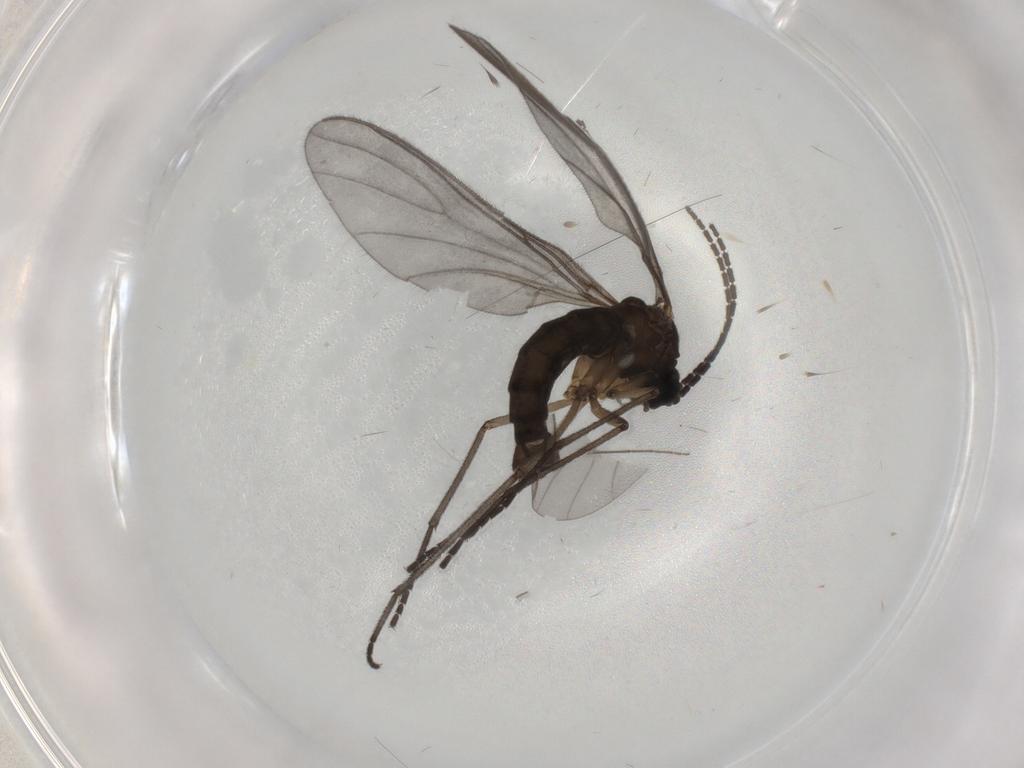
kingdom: Animalia
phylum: Arthropoda
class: Insecta
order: Diptera
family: Sciaridae
